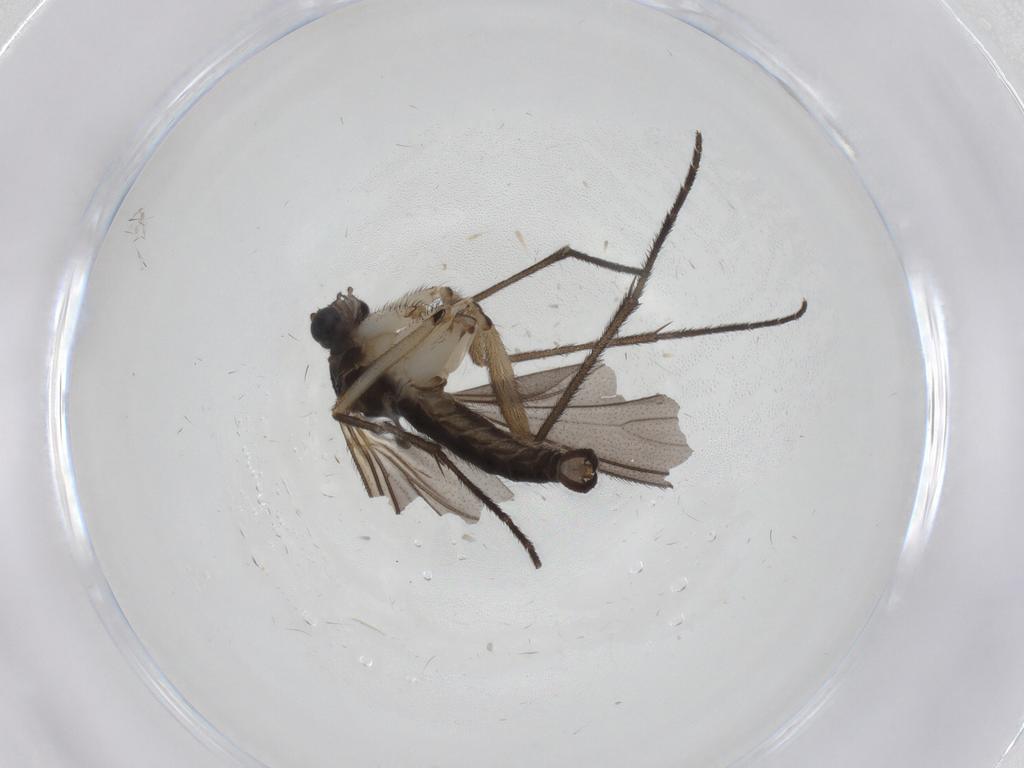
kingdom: Animalia
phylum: Arthropoda
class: Insecta
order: Diptera
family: Sciaridae
